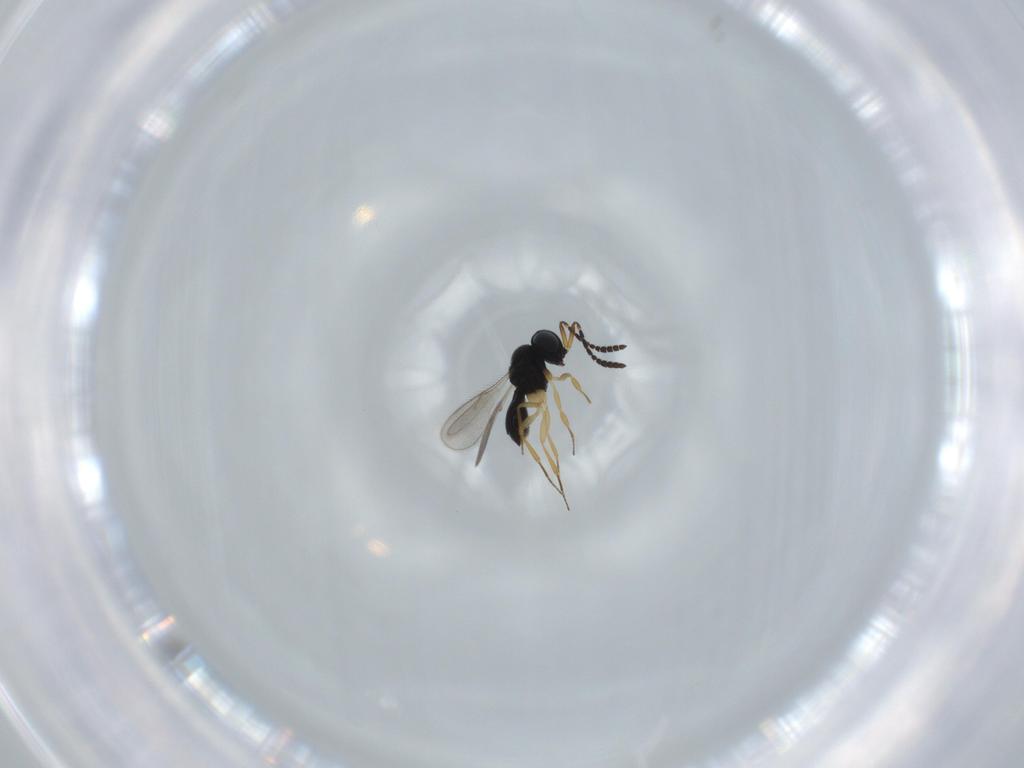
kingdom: Animalia
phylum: Arthropoda
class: Insecta
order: Hymenoptera
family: Scelionidae
